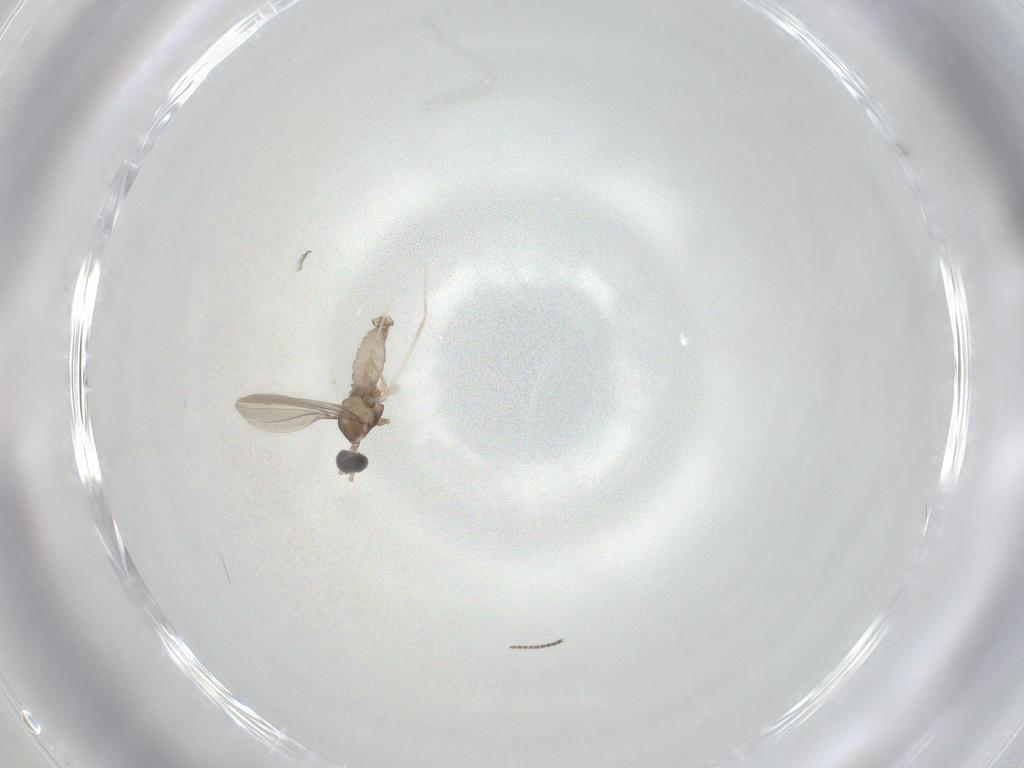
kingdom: Animalia
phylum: Arthropoda
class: Insecta
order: Diptera
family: Cecidomyiidae
